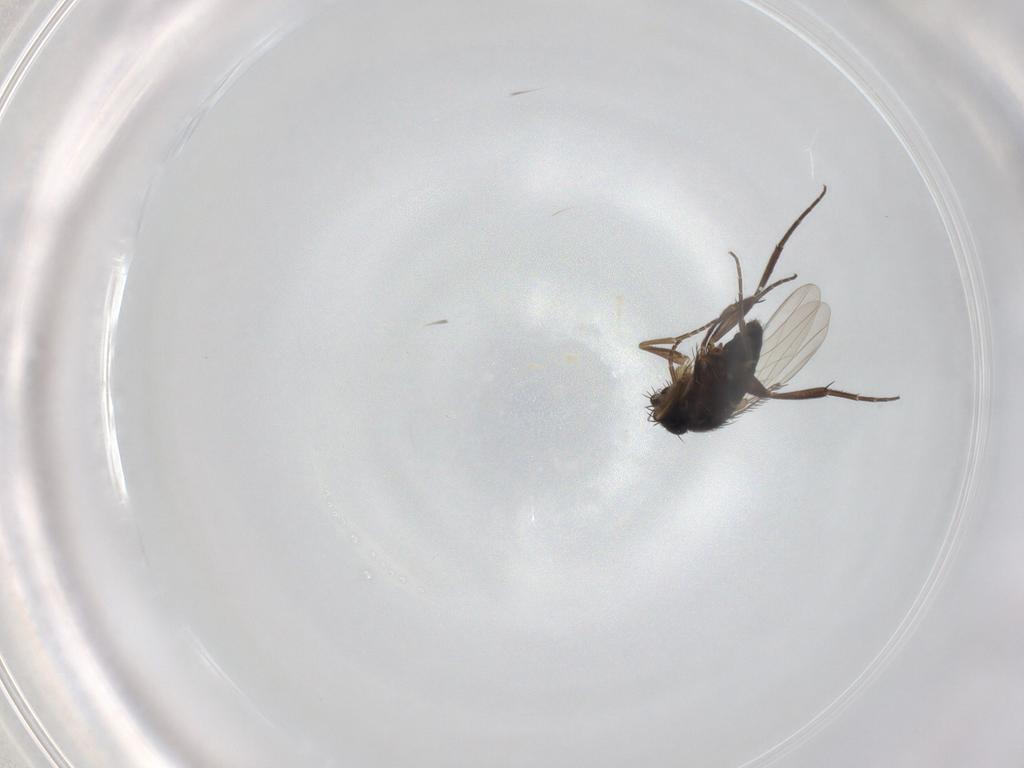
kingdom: Animalia
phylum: Arthropoda
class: Insecta
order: Diptera
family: Phoridae
